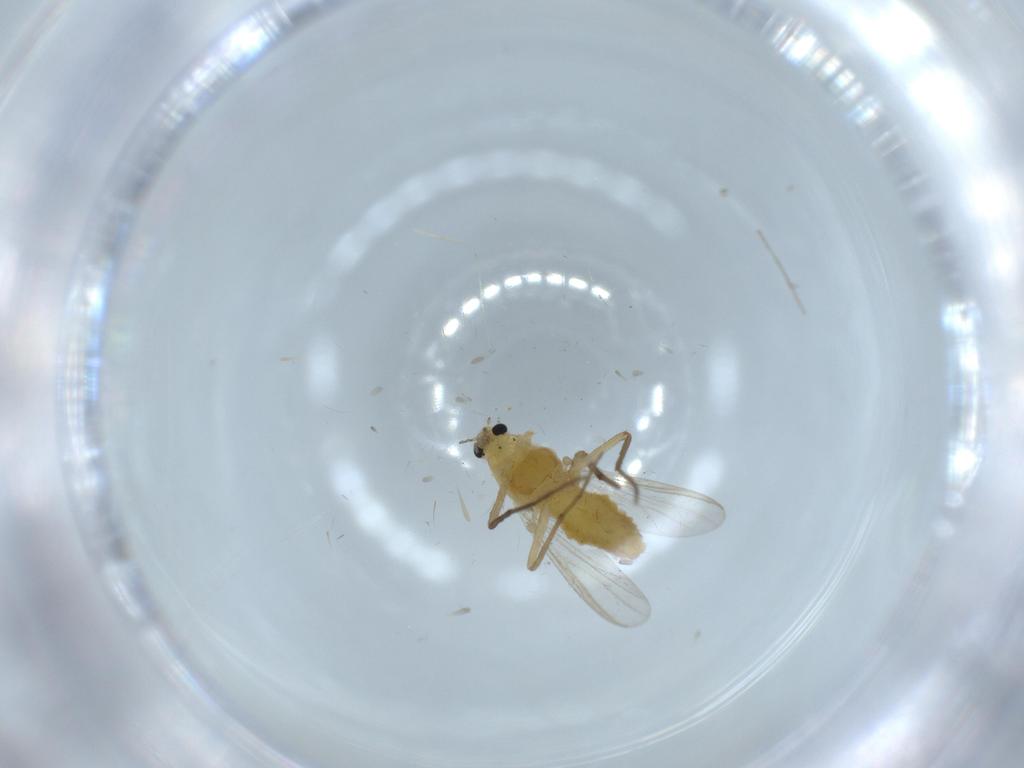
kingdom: Animalia
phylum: Arthropoda
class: Insecta
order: Diptera
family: Chironomidae
